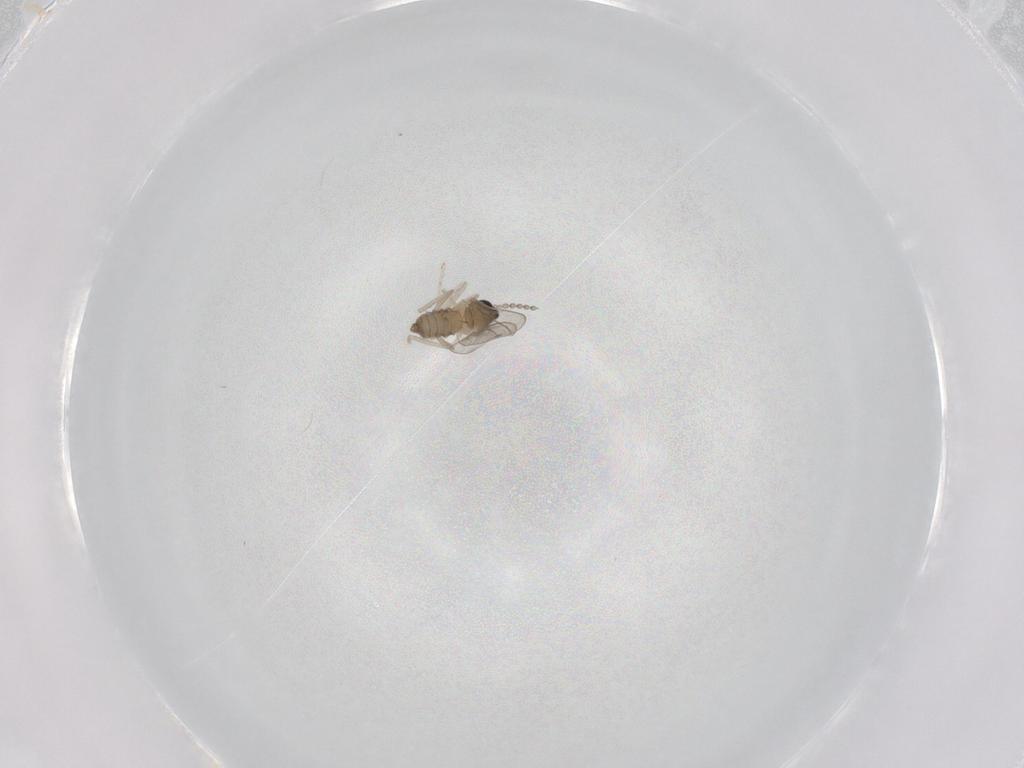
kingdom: Animalia
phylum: Arthropoda
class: Insecta
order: Diptera
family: Cecidomyiidae
